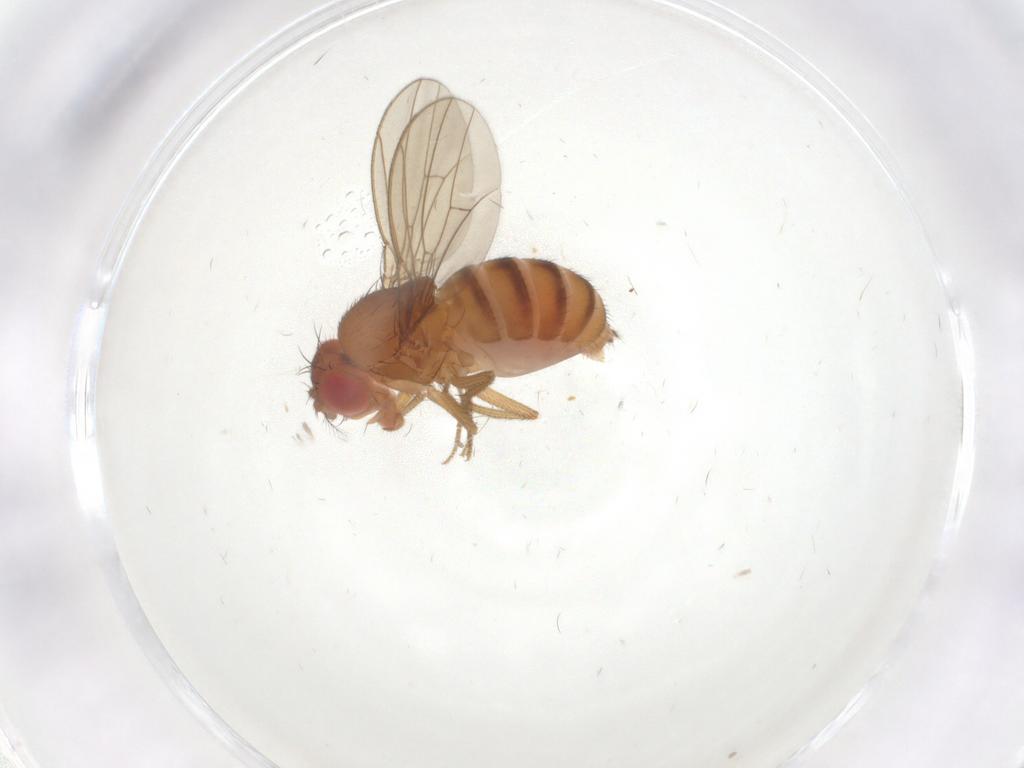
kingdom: Animalia
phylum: Arthropoda
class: Insecta
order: Diptera
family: Drosophilidae
